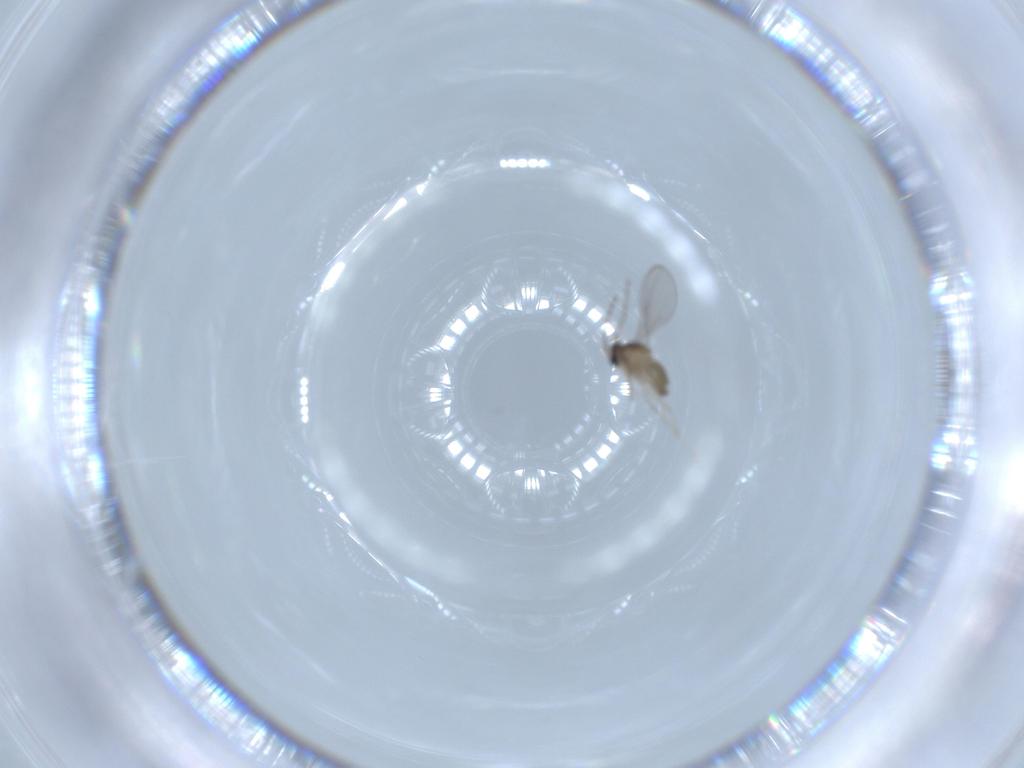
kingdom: Animalia
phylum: Arthropoda
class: Insecta
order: Diptera
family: Cecidomyiidae
